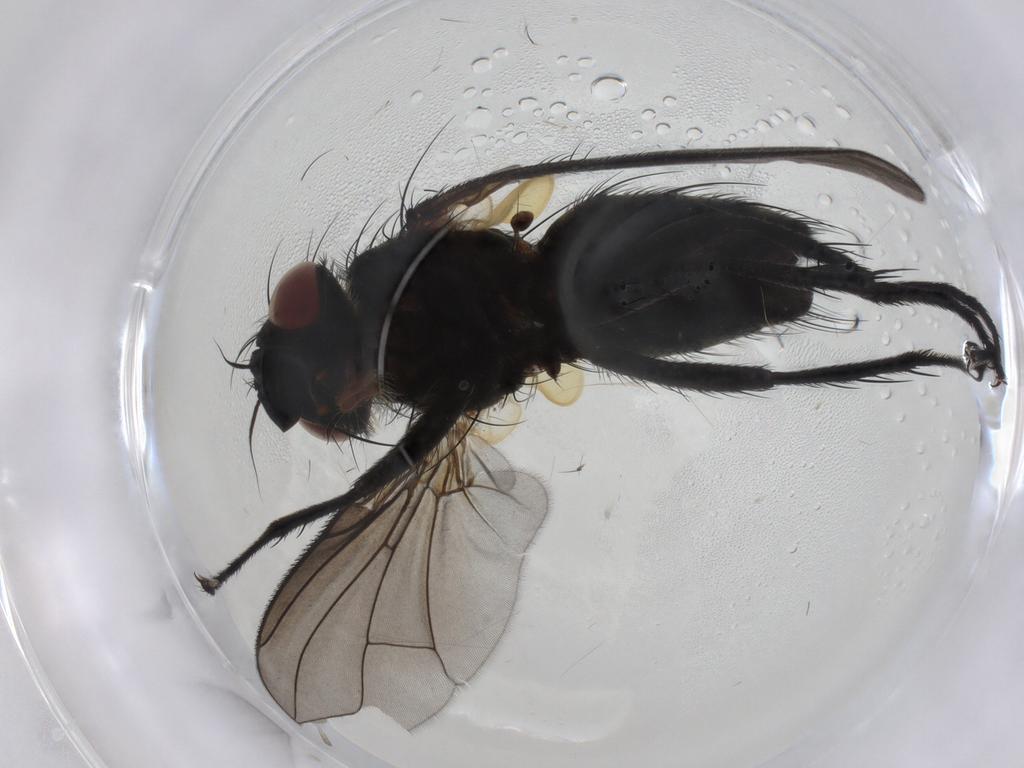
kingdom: Animalia
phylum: Arthropoda
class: Insecta
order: Diptera
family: Tachinidae
